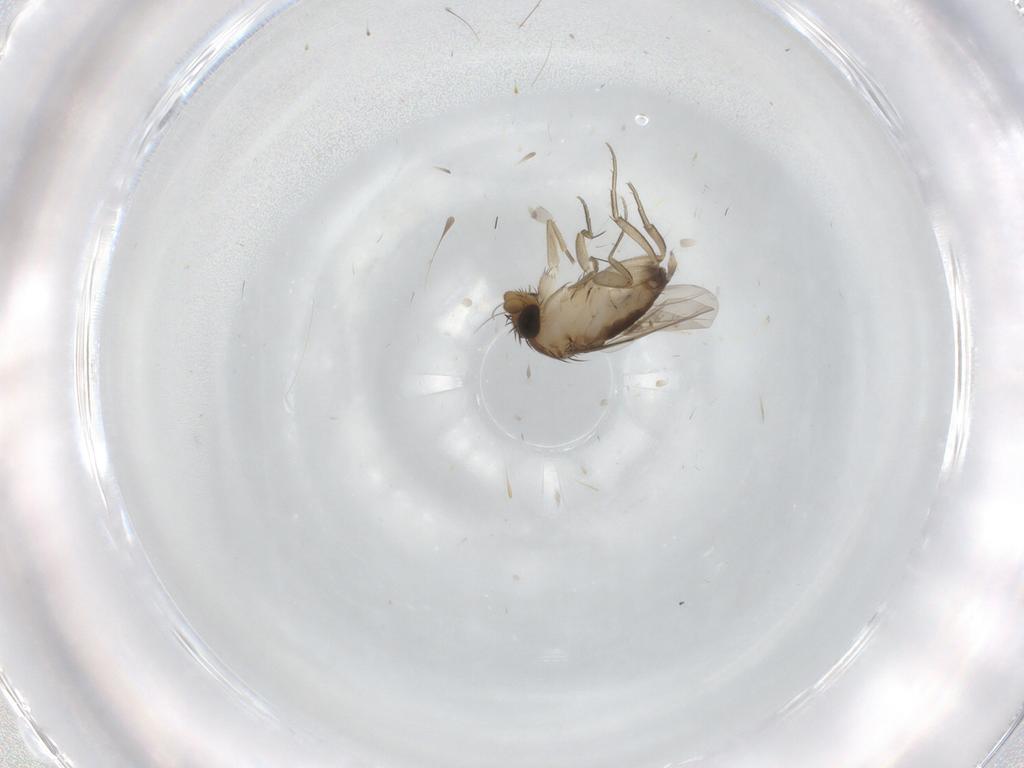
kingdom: Animalia
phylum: Arthropoda
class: Insecta
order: Diptera
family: Phoridae
